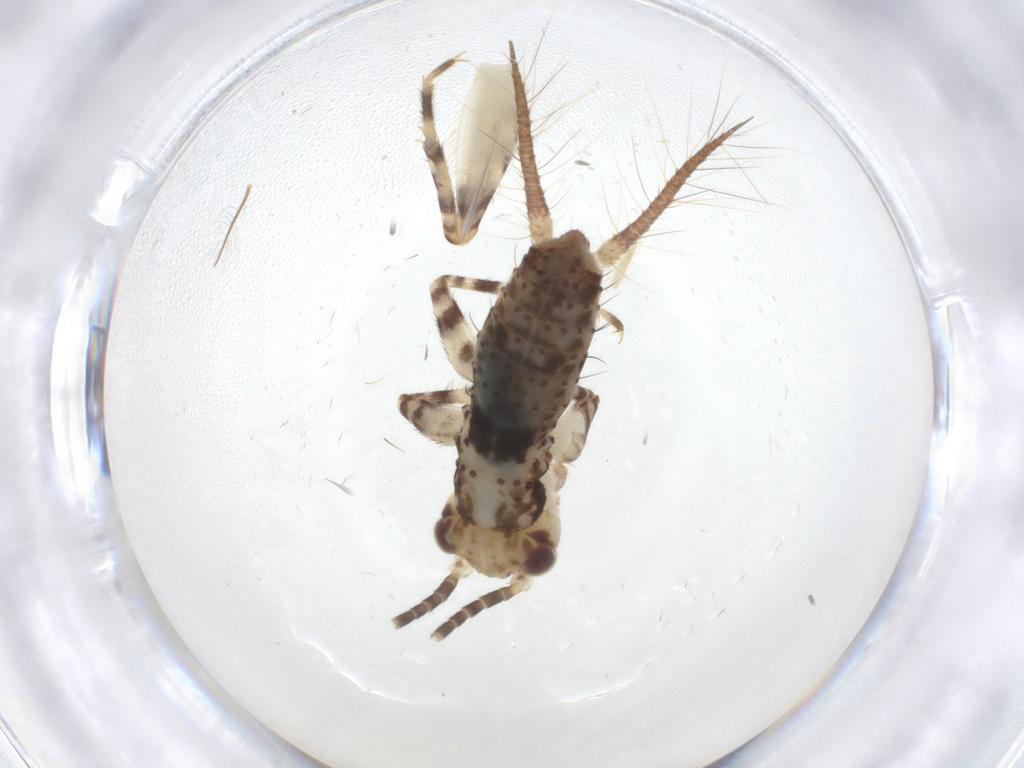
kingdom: Animalia
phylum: Arthropoda
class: Insecta
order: Orthoptera
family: Gryllidae
